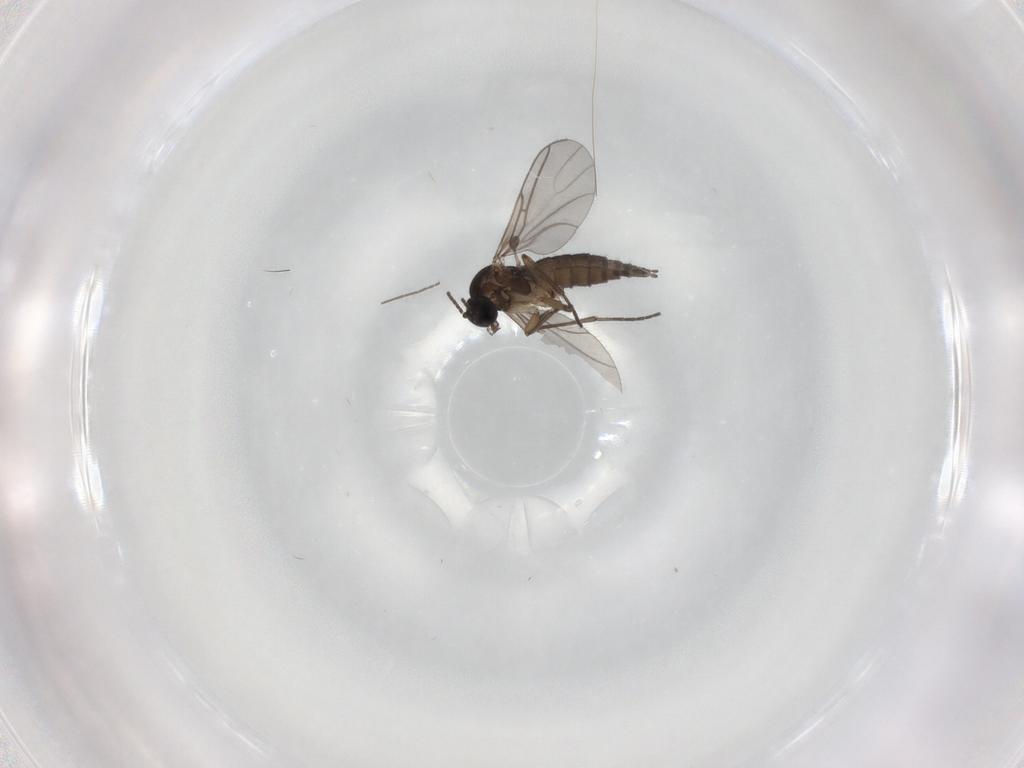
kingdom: Animalia
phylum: Arthropoda
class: Insecta
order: Diptera
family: Sciaridae
